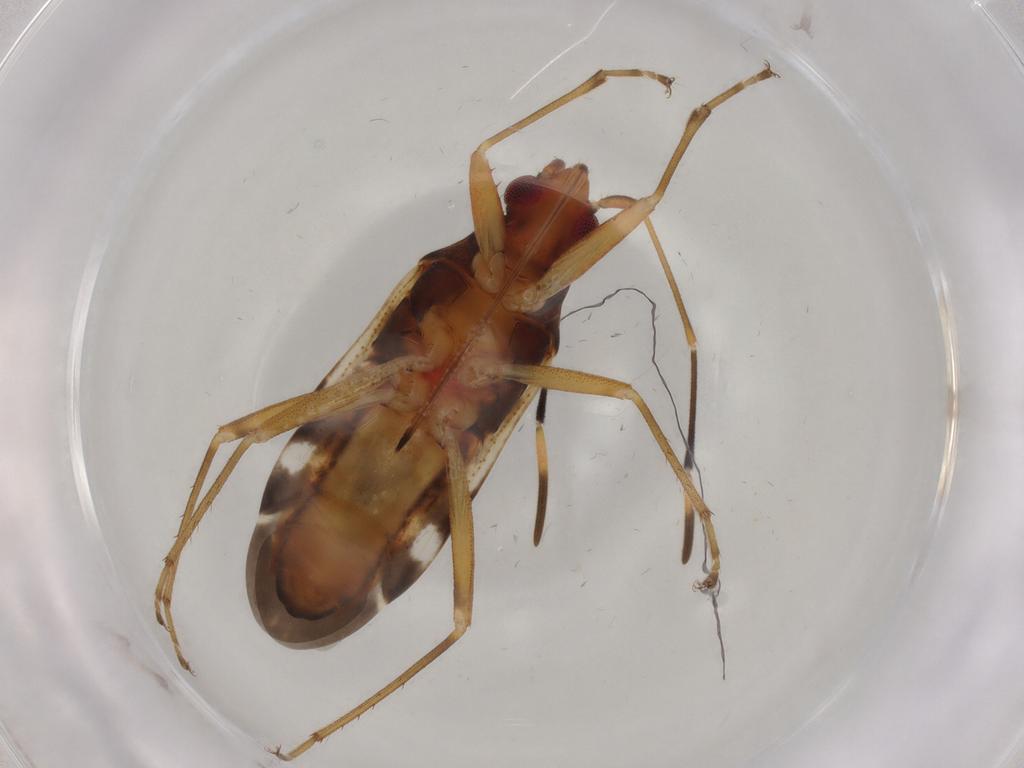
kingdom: Animalia
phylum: Arthropoda
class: Insecta
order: Hemiptera
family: Rhyparochromidae
